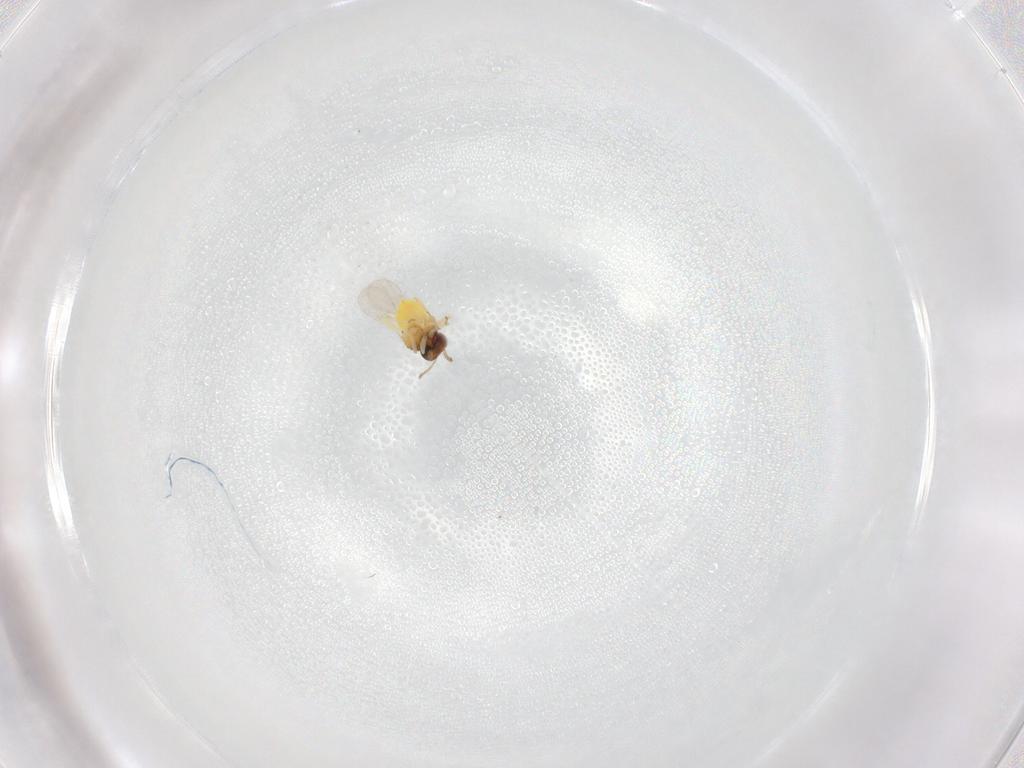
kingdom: Animalia
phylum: Arthropoda
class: Insecta
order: Hymenoptera
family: Aphelinidae
